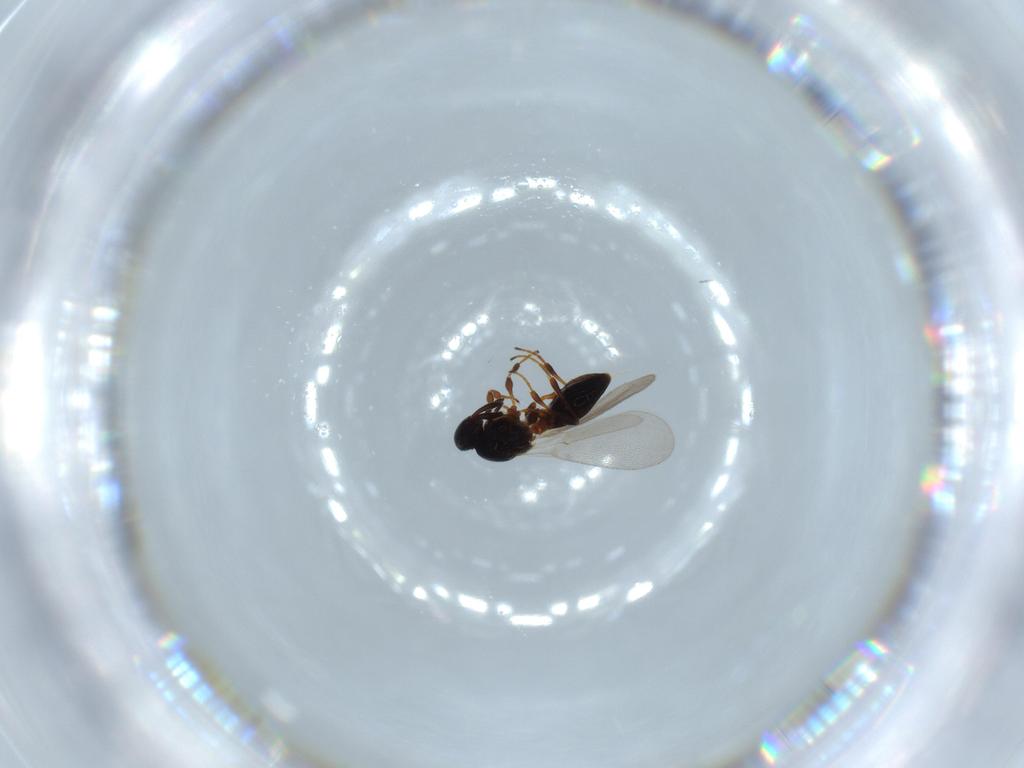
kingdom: Animalia
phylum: Arthropoda
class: Insecta
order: Hymenoptera
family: Platygastridae
